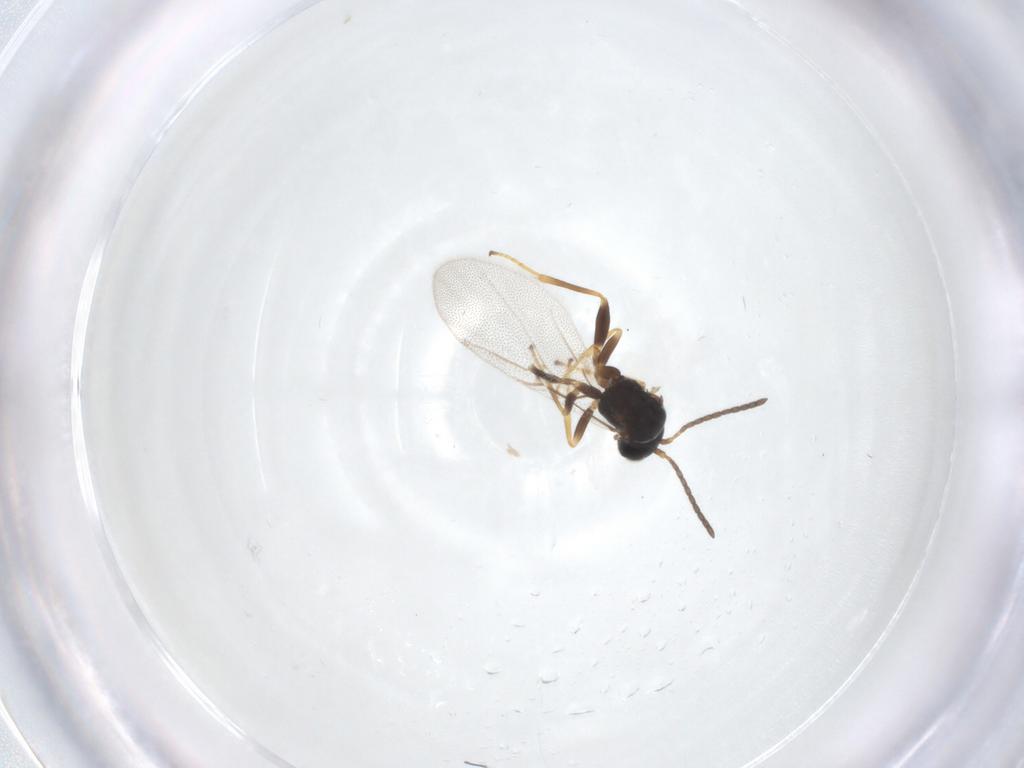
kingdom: Animalia
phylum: Arthropoda
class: Insecta
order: Hymenoptera
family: Cynipidae
